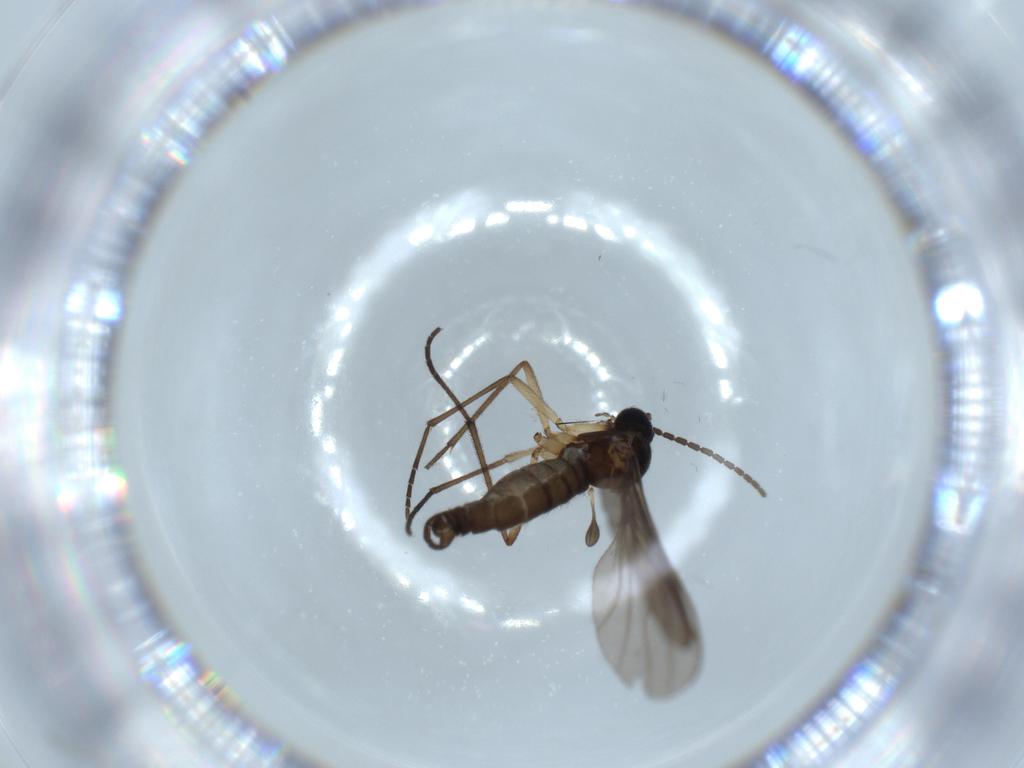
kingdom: Animalia
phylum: Arthropoda
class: Insecta
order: Diptera
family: Sciaridae
